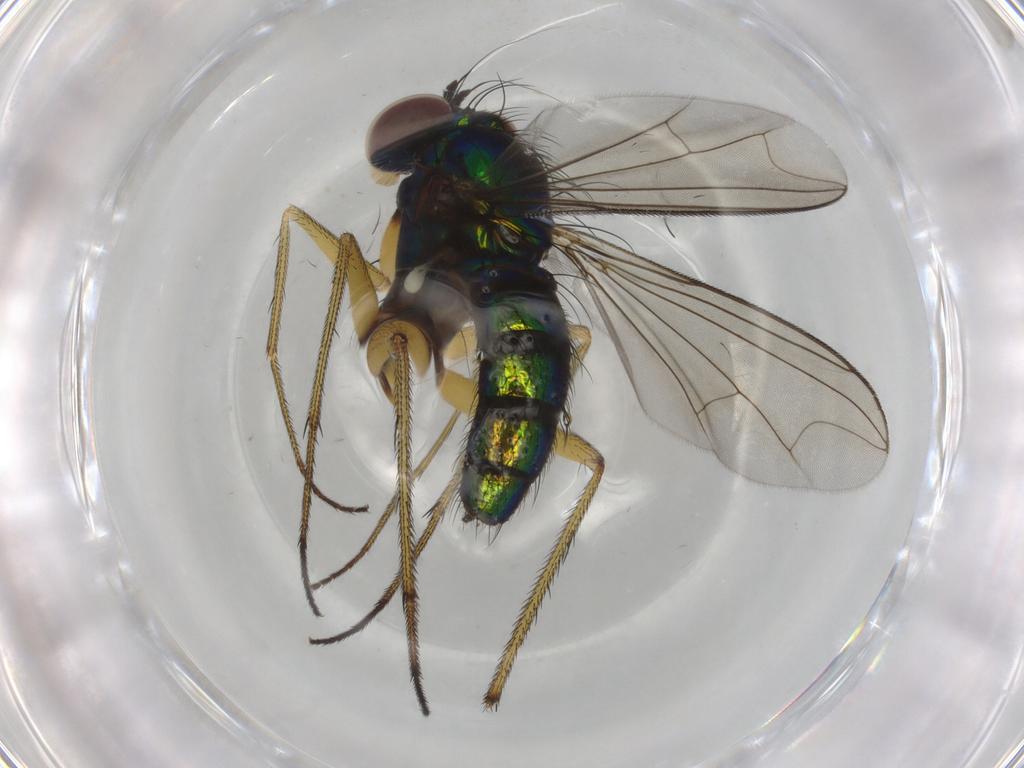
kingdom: Animalia
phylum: Arthropoda
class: Insecta
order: Diptera
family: Dolichopodidae
